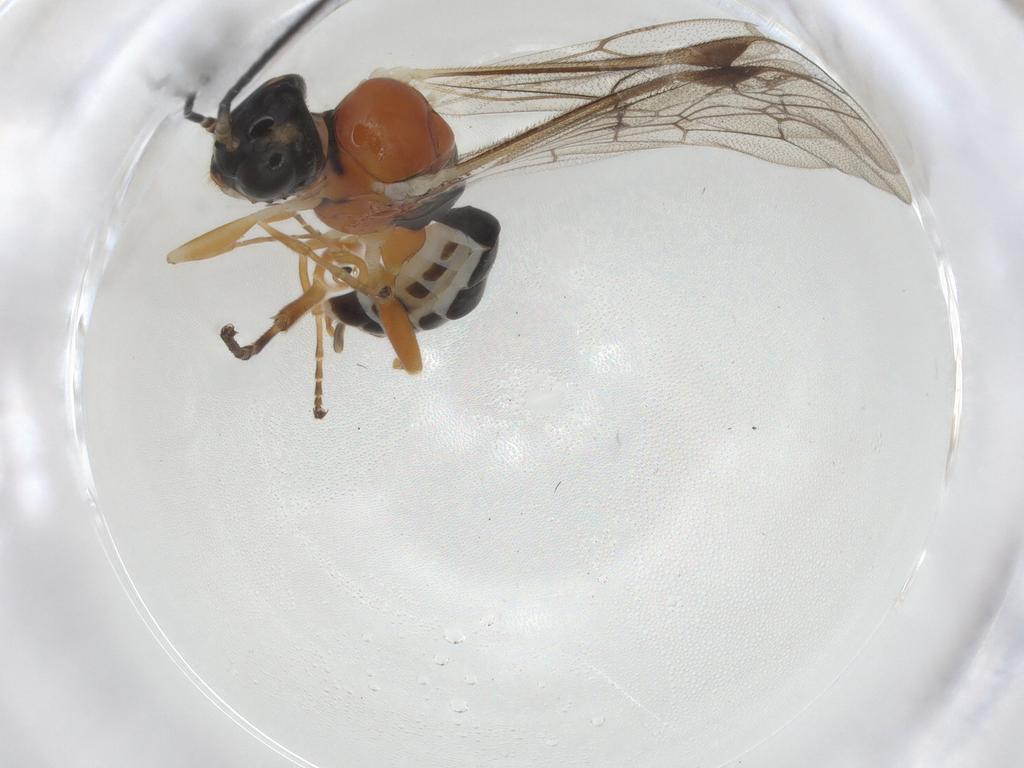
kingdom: Animalia
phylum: Arthropoda
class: Insecta
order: Hymenoptera
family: Ichneumonidae
